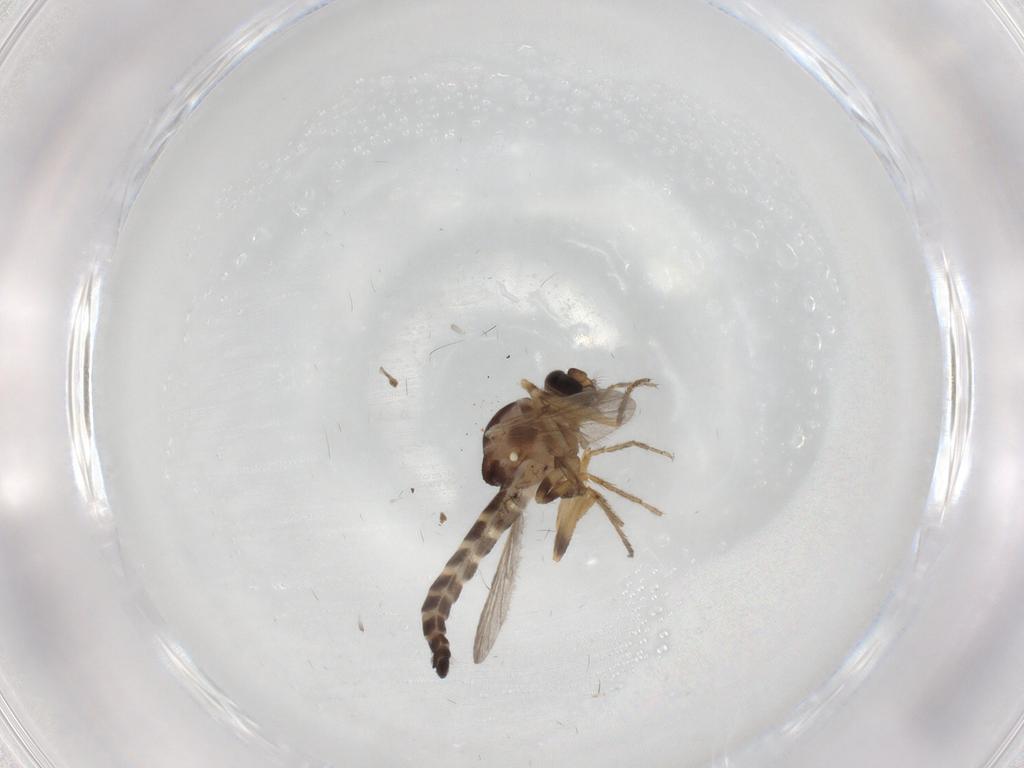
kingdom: Animalia
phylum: Arthropoda
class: Insecta
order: Diptera
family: Ceratopogonidae
